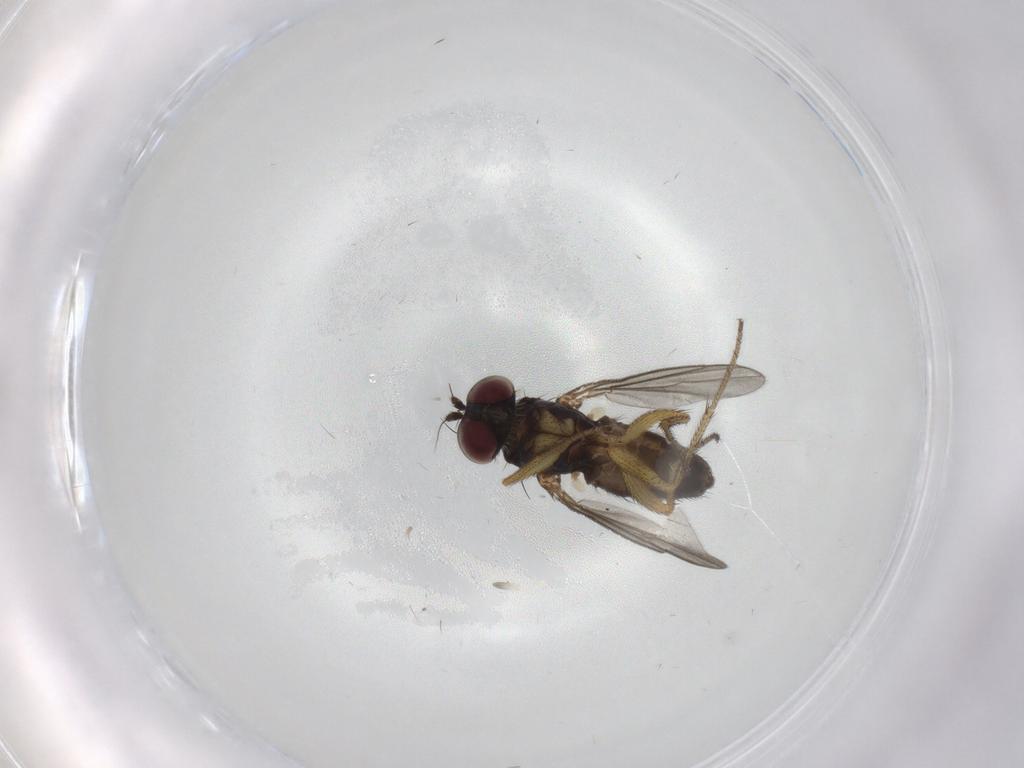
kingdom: Animalia
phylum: Arthropoda
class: Insecta
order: Diptera
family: Dolichopodidae
